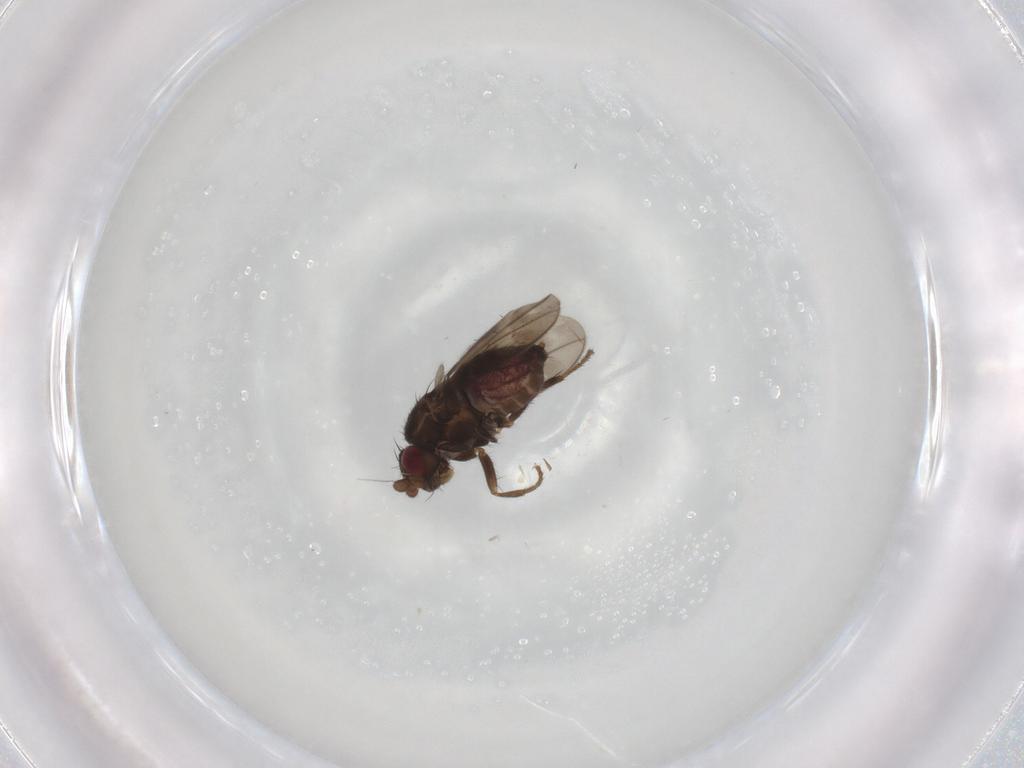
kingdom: Animalia
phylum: Arthropoda
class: Insecta
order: Diptera
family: Sphaeroceridae
